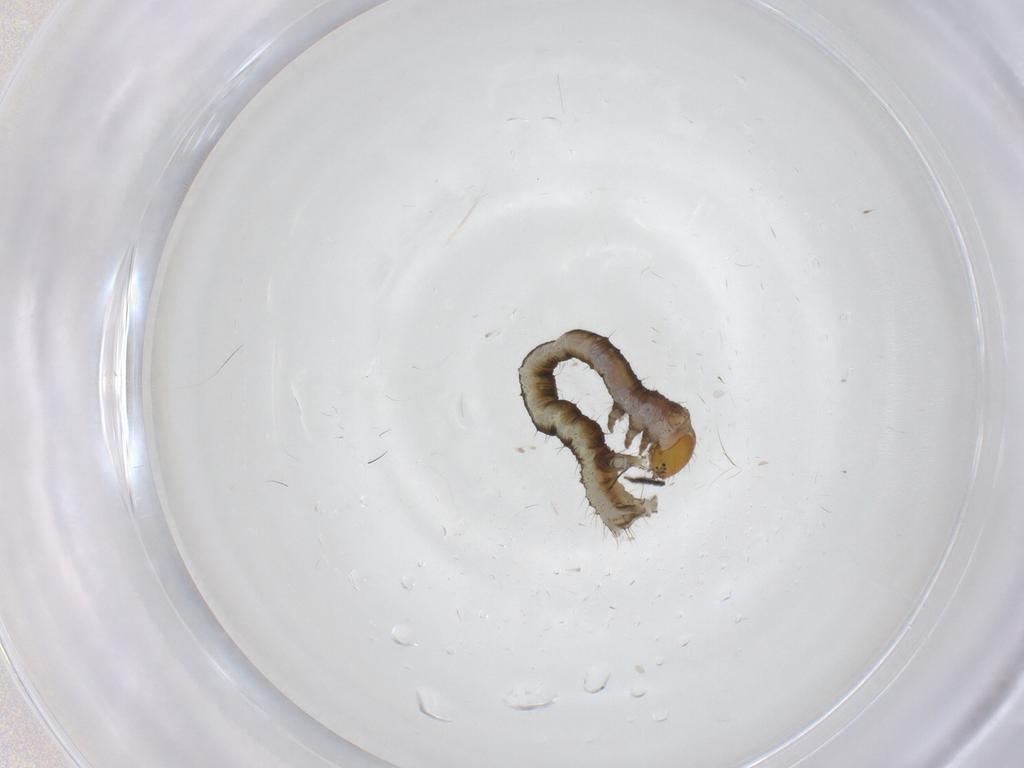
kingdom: Animalia
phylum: Arthropoda
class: Insecta
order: Lepidoptera
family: Geometridae
